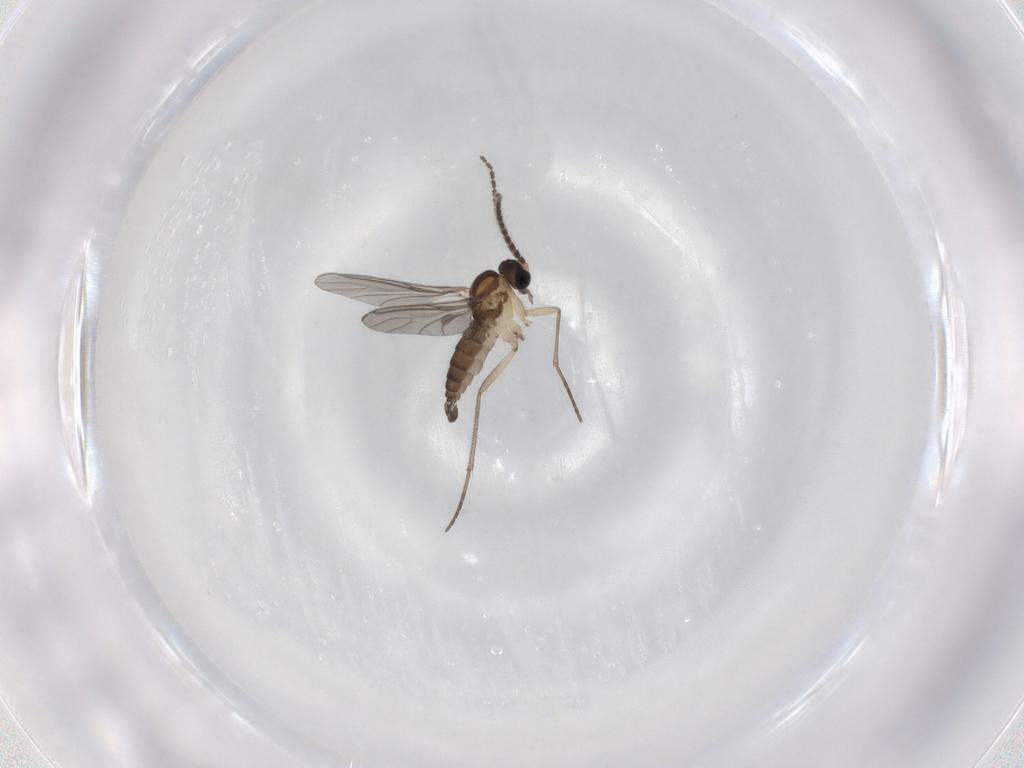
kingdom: Animalia
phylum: Arthropoda
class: Insecta
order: Diptera
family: Sciaridae
